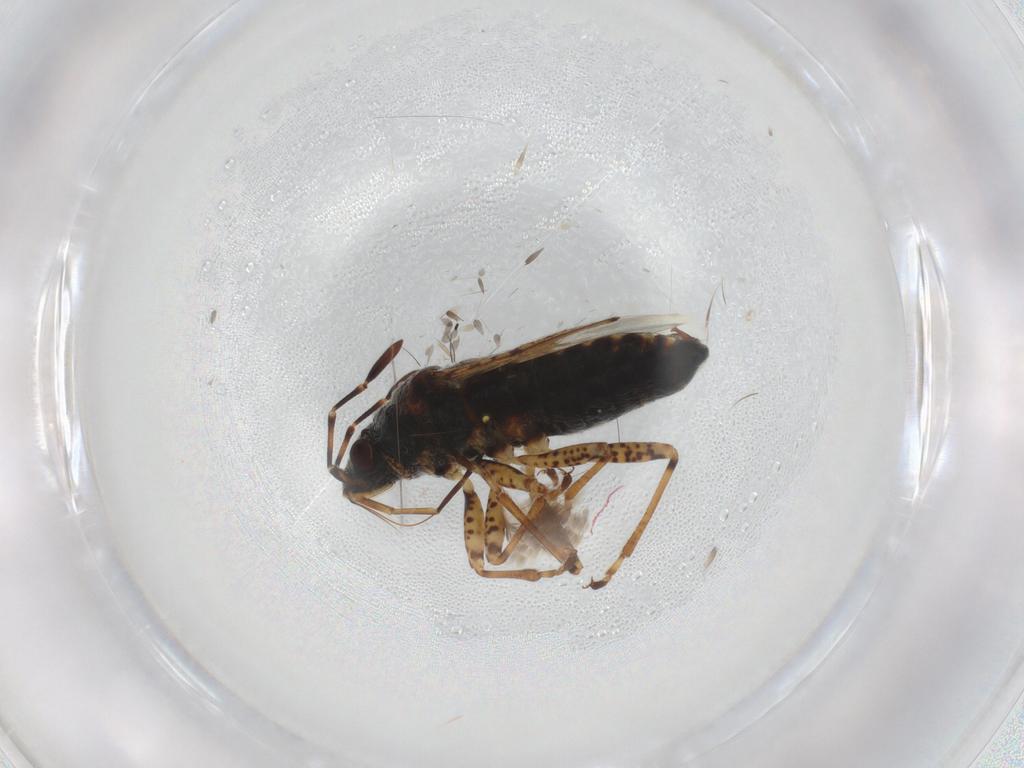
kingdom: Animalia
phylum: Arthropoda
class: Insecta
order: Hemiptera
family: Lygaeidae
